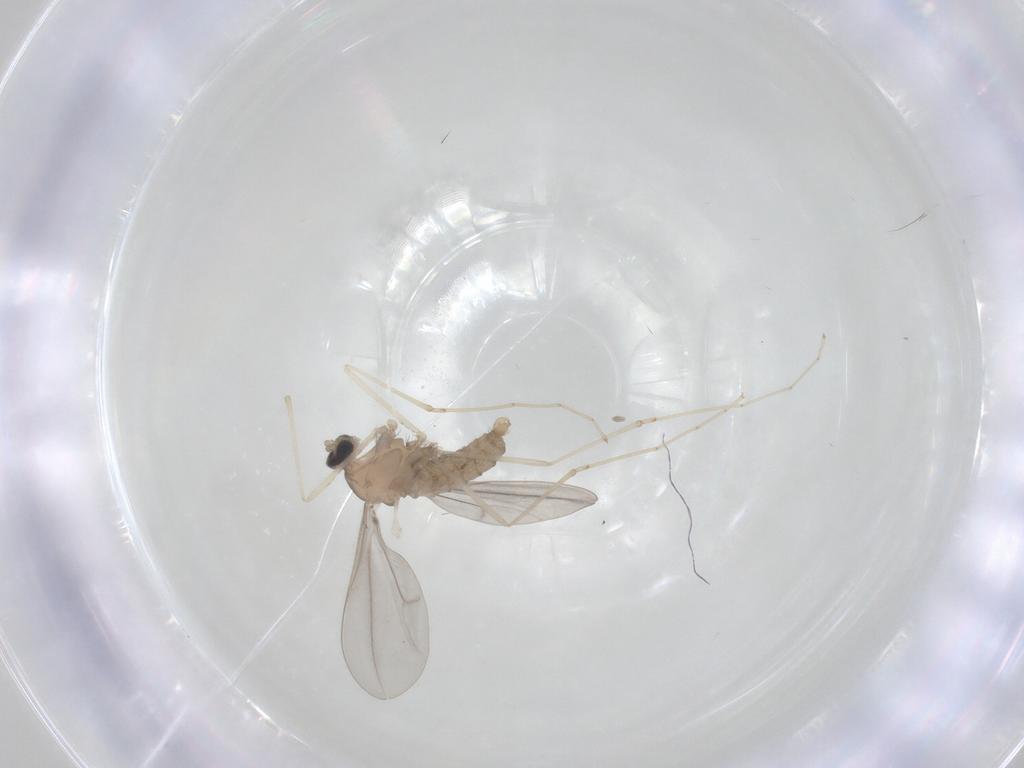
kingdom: Animalia
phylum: Arthropoda
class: Insecta
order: Diptera
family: Cecidomyiidae
